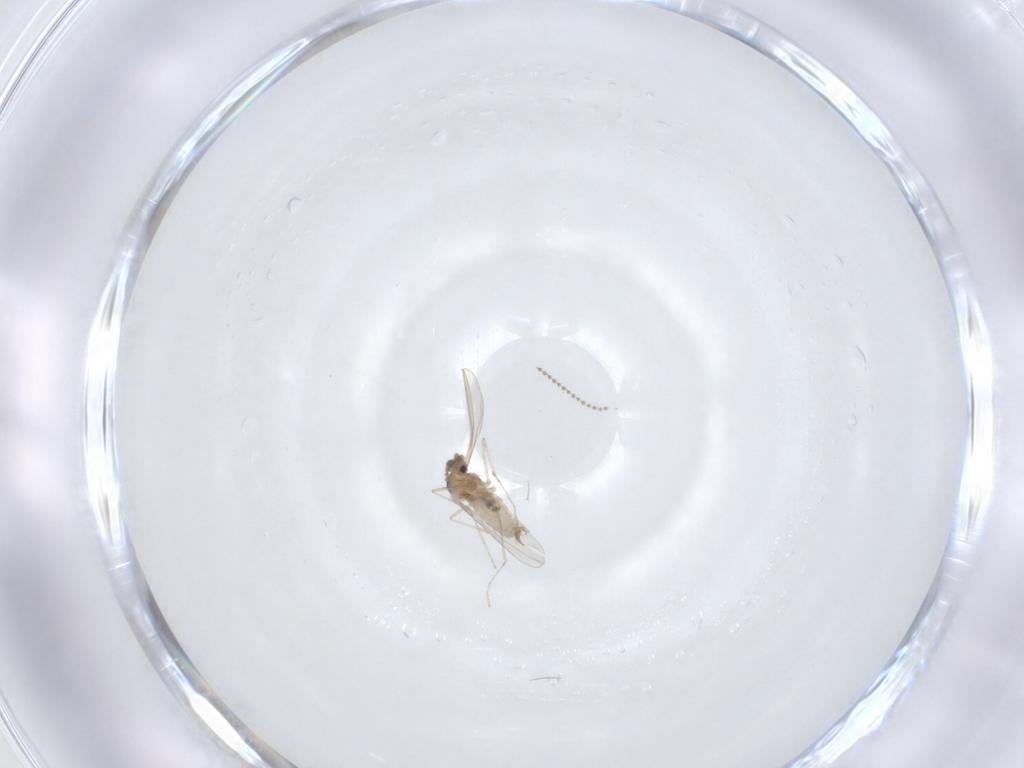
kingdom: Animalia
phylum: Arthropoda
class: Insecta
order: Diptera
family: Cecidomyiidae
